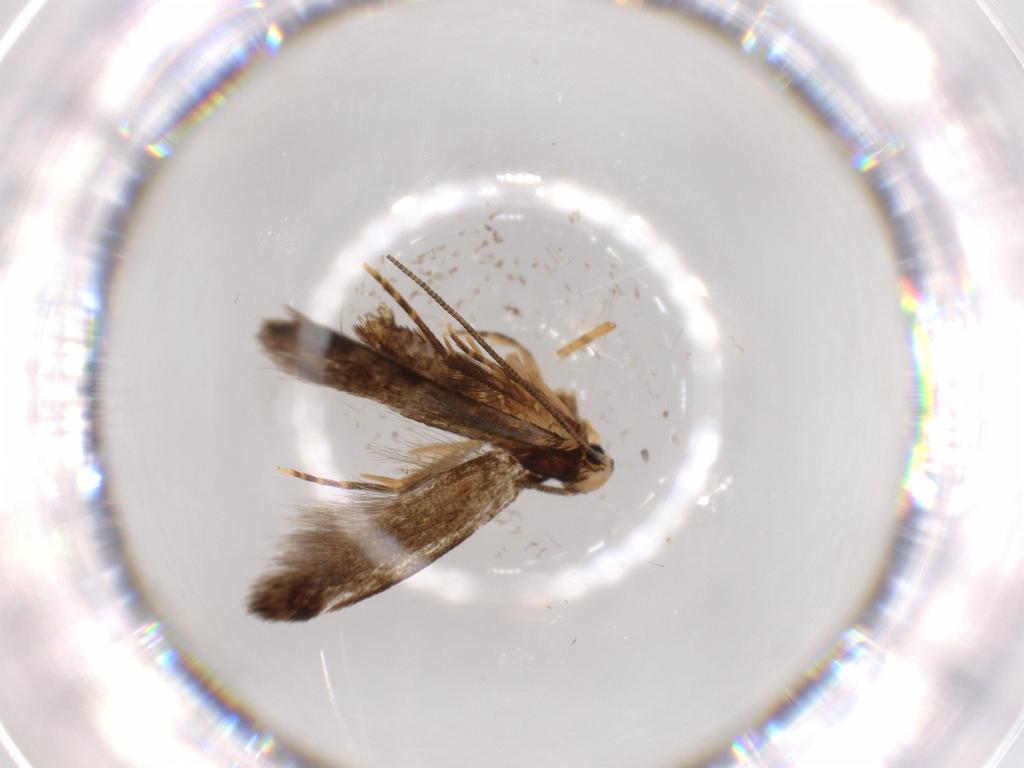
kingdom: Animalia
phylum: Arthropoda
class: Insecta
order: Lepidoptera
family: Tineidae
